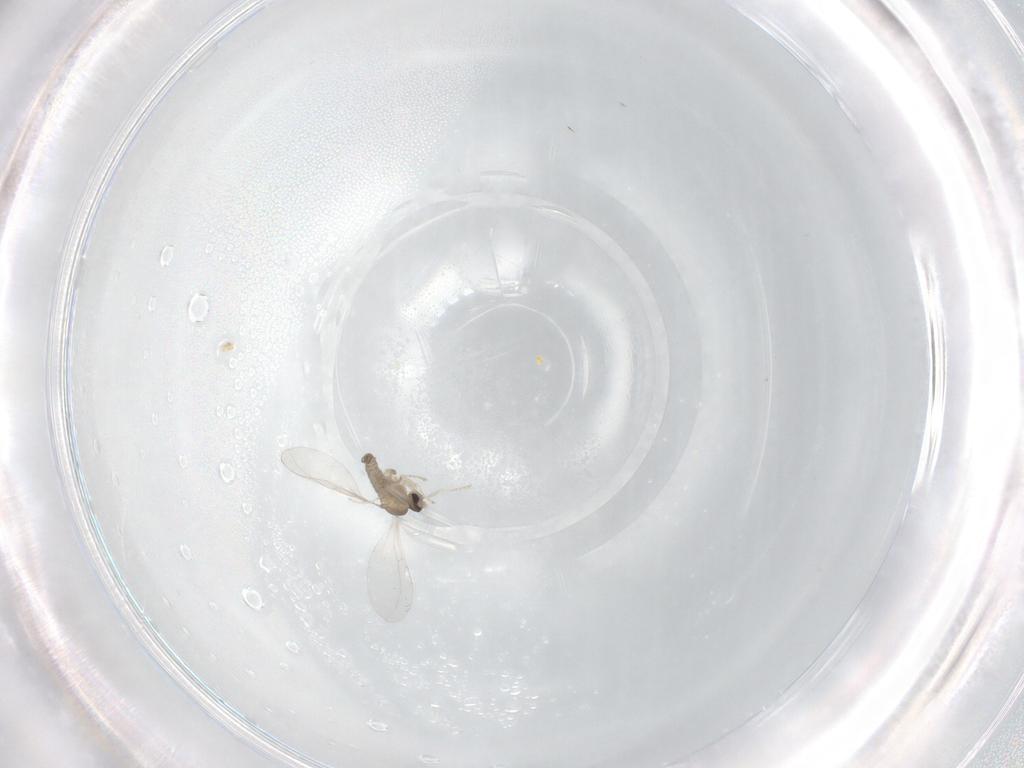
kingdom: Animalia
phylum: Arthropoda
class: Insecta
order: Diptera
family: Cecidomyiidae
